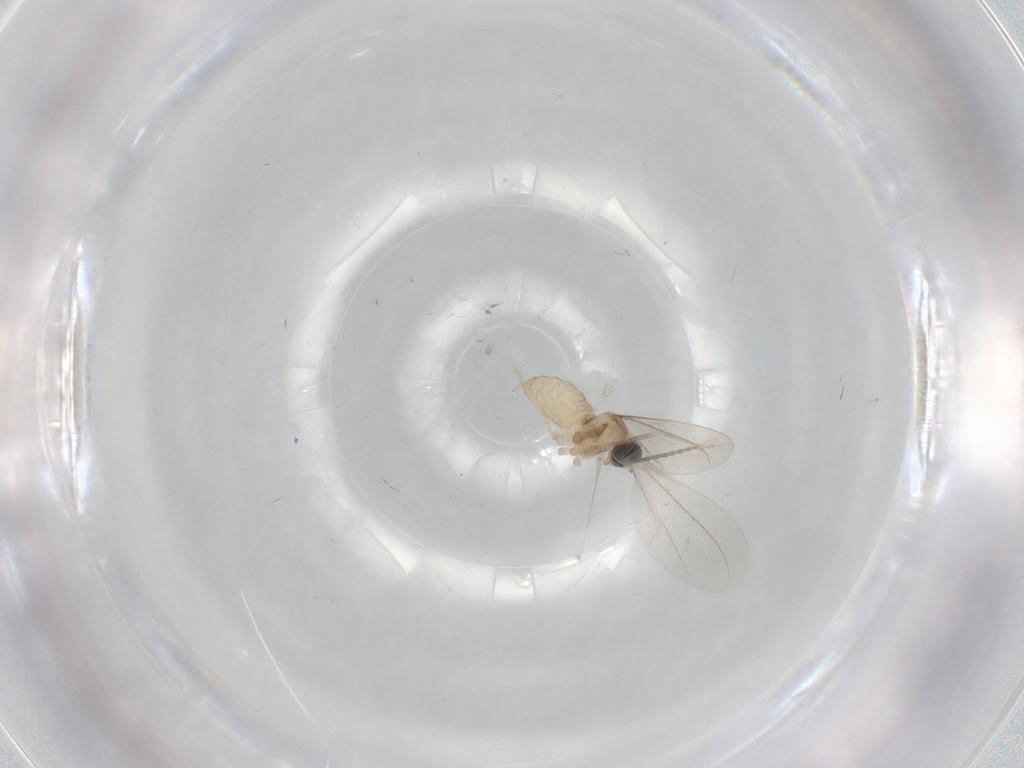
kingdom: Animalia
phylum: Arthropoda
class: Insecta
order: Diptera
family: Cecidomyiidae
